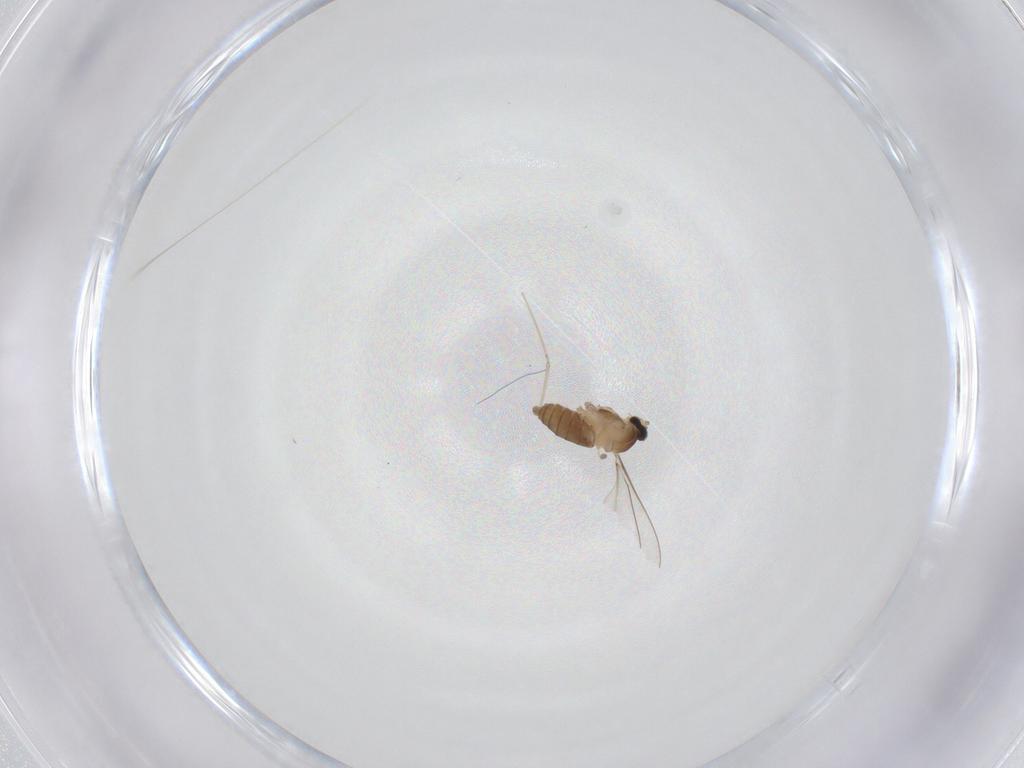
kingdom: Animalia
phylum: Arthropoda
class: Insecta
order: Diptera
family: Cecidomyiidae
